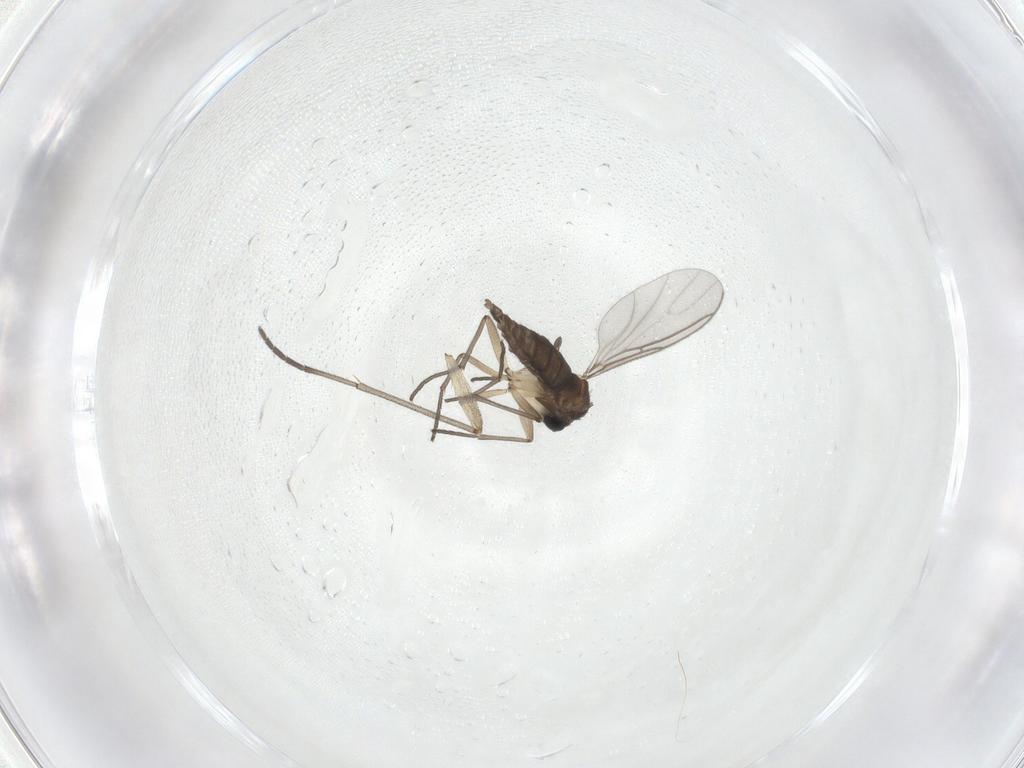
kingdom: Animalia
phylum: Arthropoda
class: Insecta
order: Diptera
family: Sciaridae
